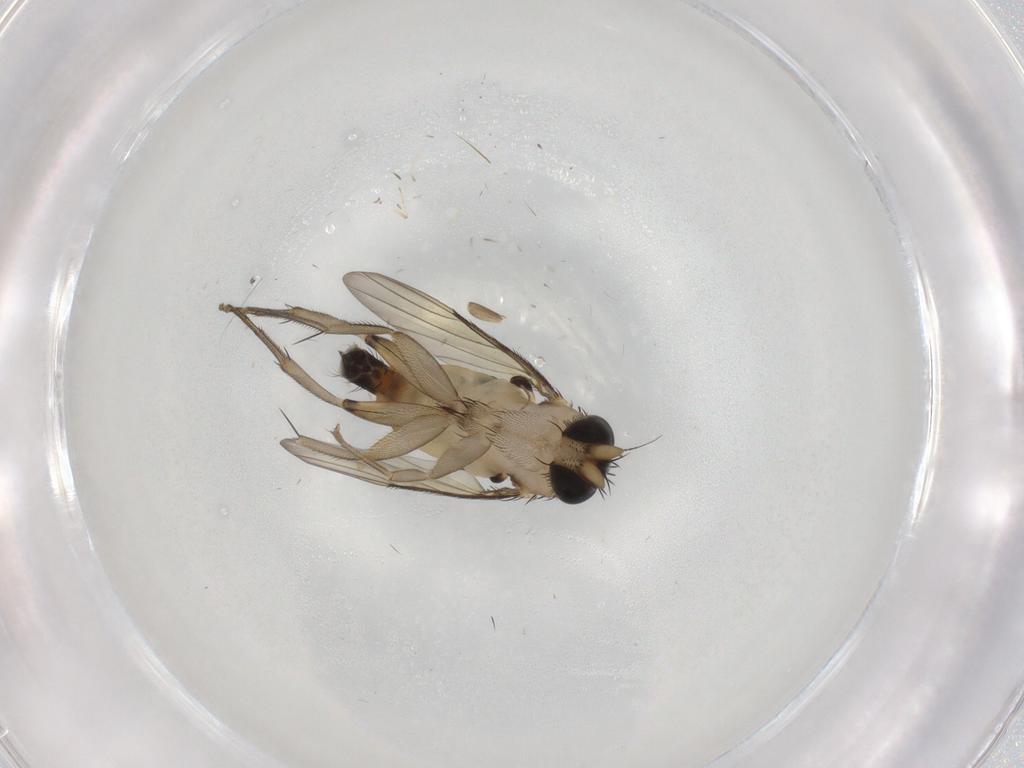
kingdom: Animalia
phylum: Arthropoda
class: Insecta
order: Diptera
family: Phoridae
